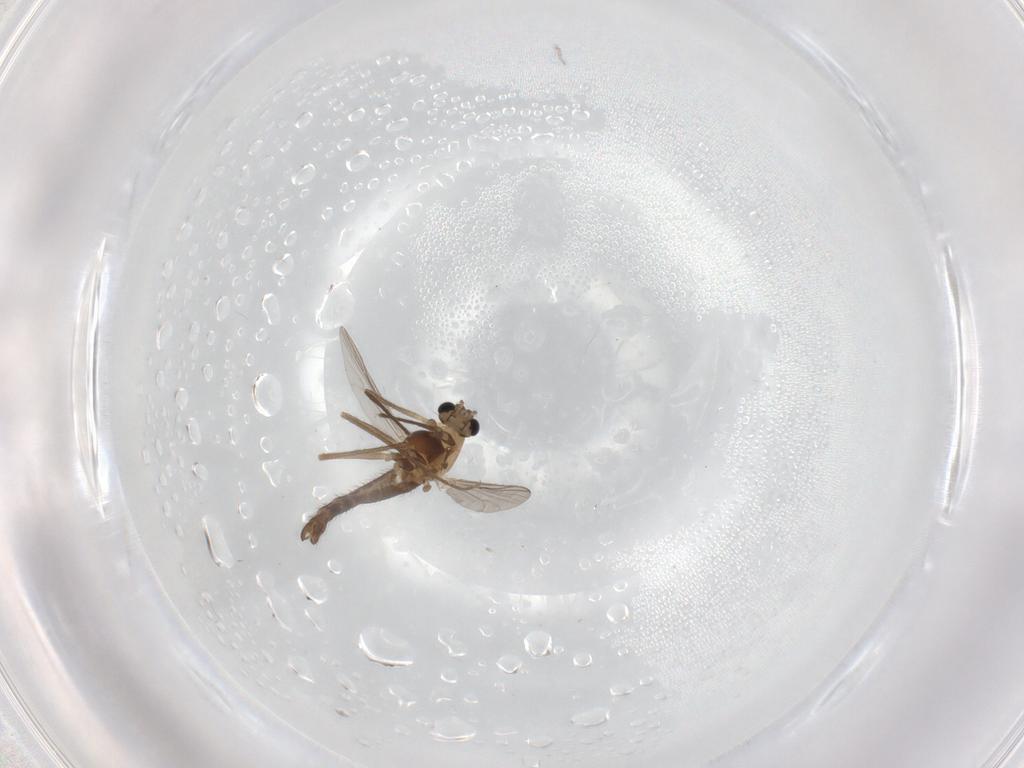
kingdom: Animalia
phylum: Arthropoda
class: Insecta
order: Diptera
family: Chironomidae
